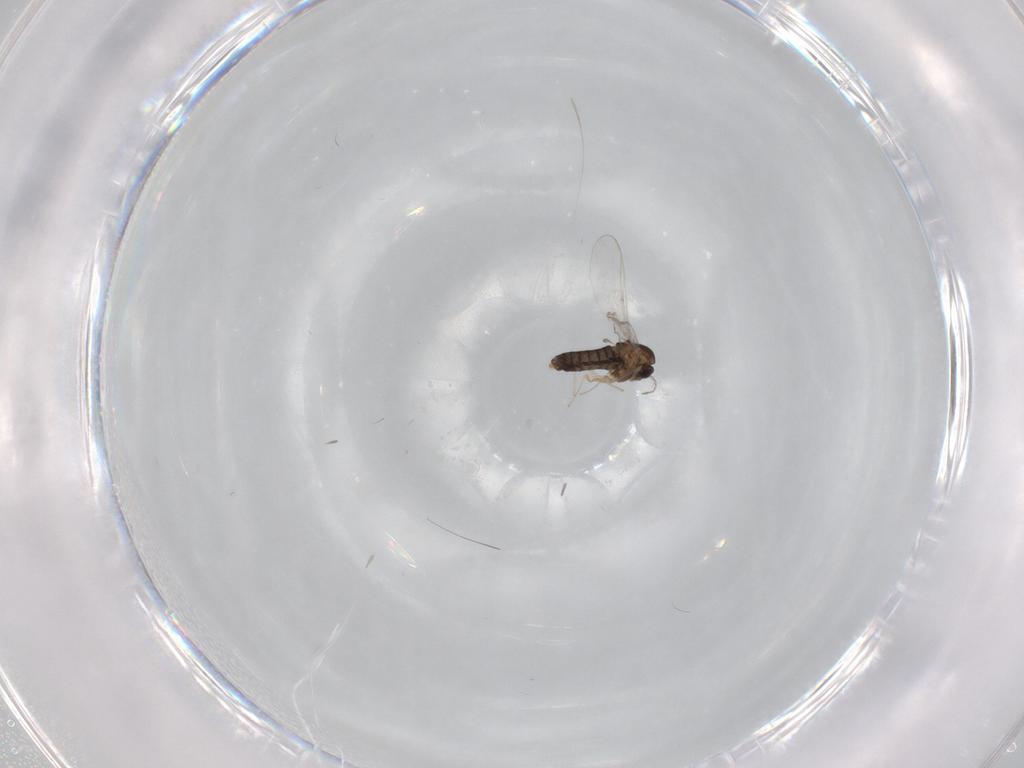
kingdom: Animalia
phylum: Arthropoda
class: Insecta
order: Diptera
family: Chironomidae
